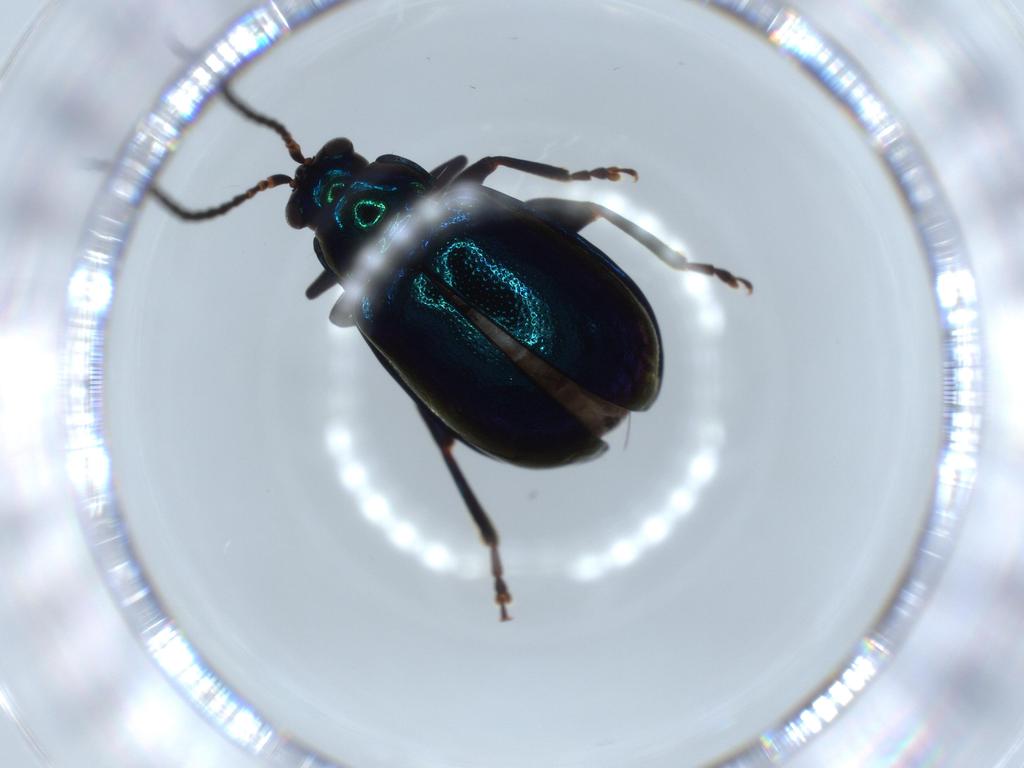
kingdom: Animalia
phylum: Arthropoda
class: Insecta
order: Coleoptera
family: Chrysomelidae
